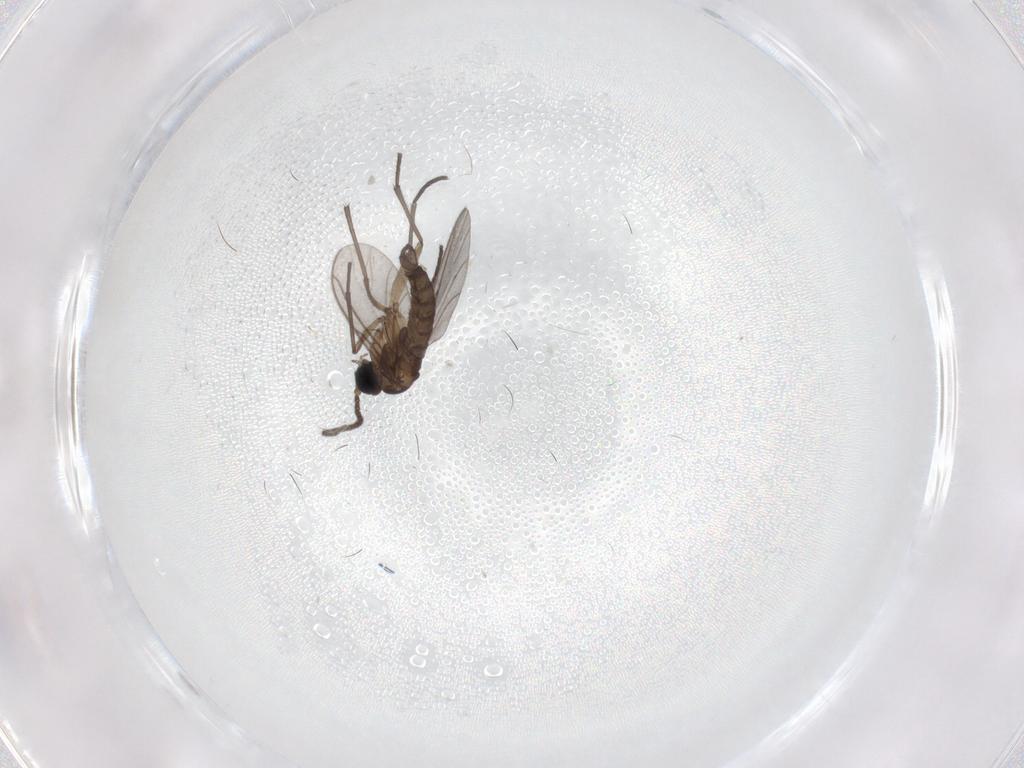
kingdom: Animalia
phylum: Arthropoda
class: Insecta
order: Diptera
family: Sciaridae
